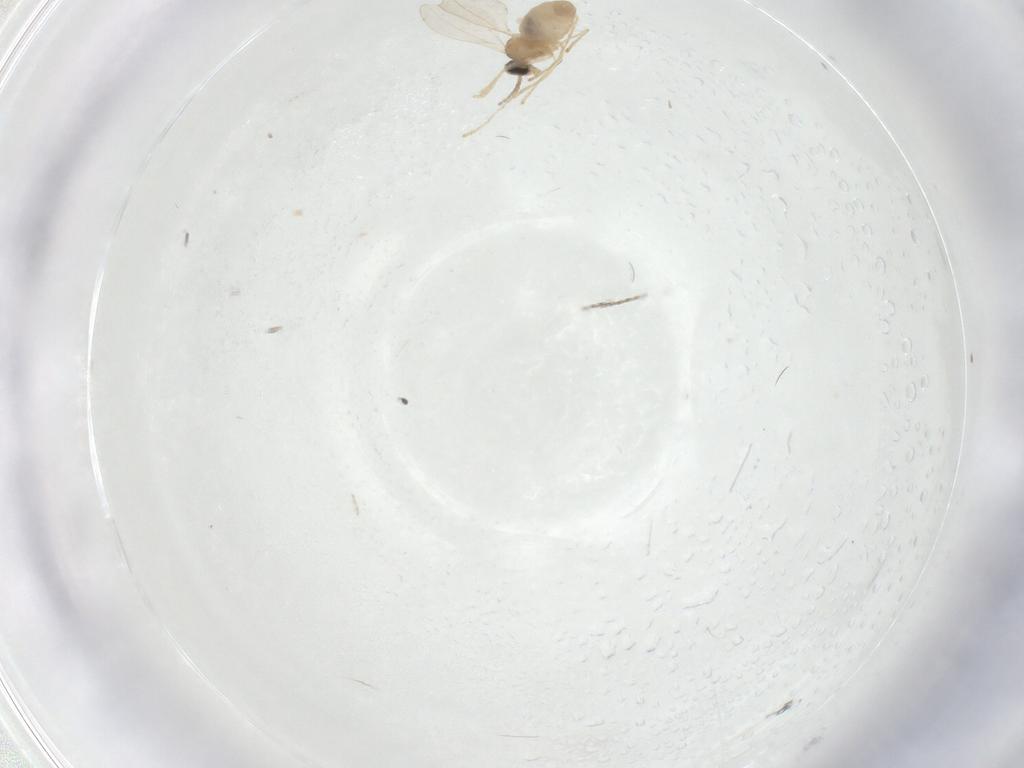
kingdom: Animalia
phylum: Arthropoda
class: Insecta
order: Diptera
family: Cecidomyiidae
